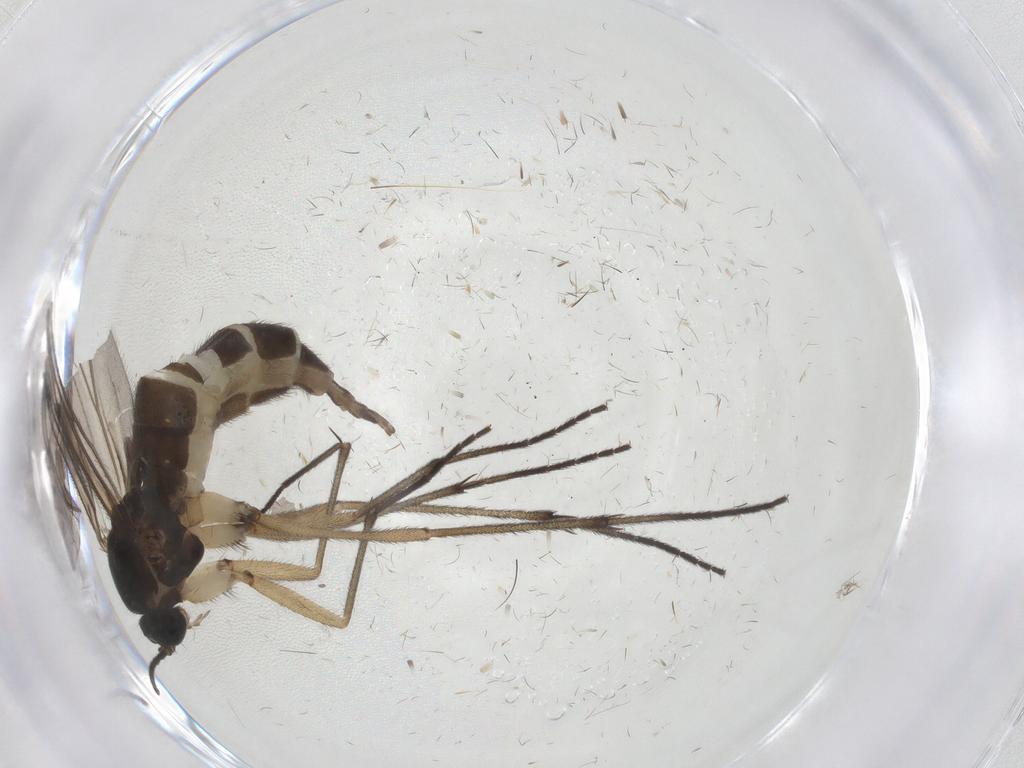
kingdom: Animalia
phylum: Arthropoda
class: Insecta
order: Diptera
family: Sciaridae
